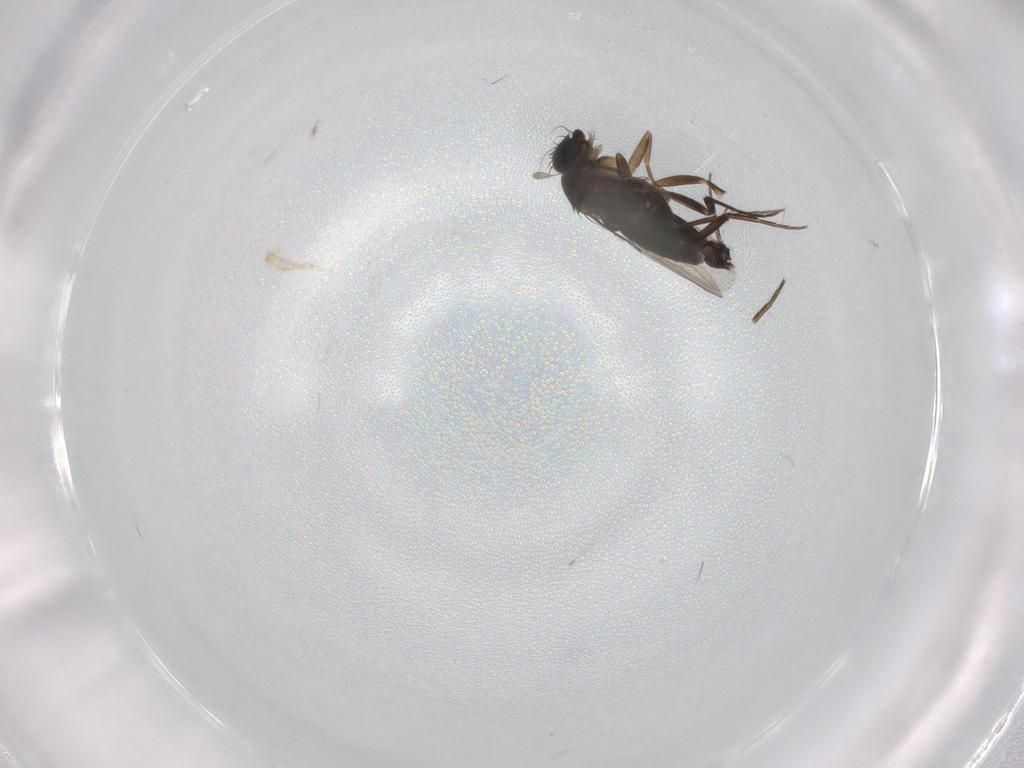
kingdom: Animalia
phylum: Arthropoda
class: Insecta
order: Diptera
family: Phoridae
